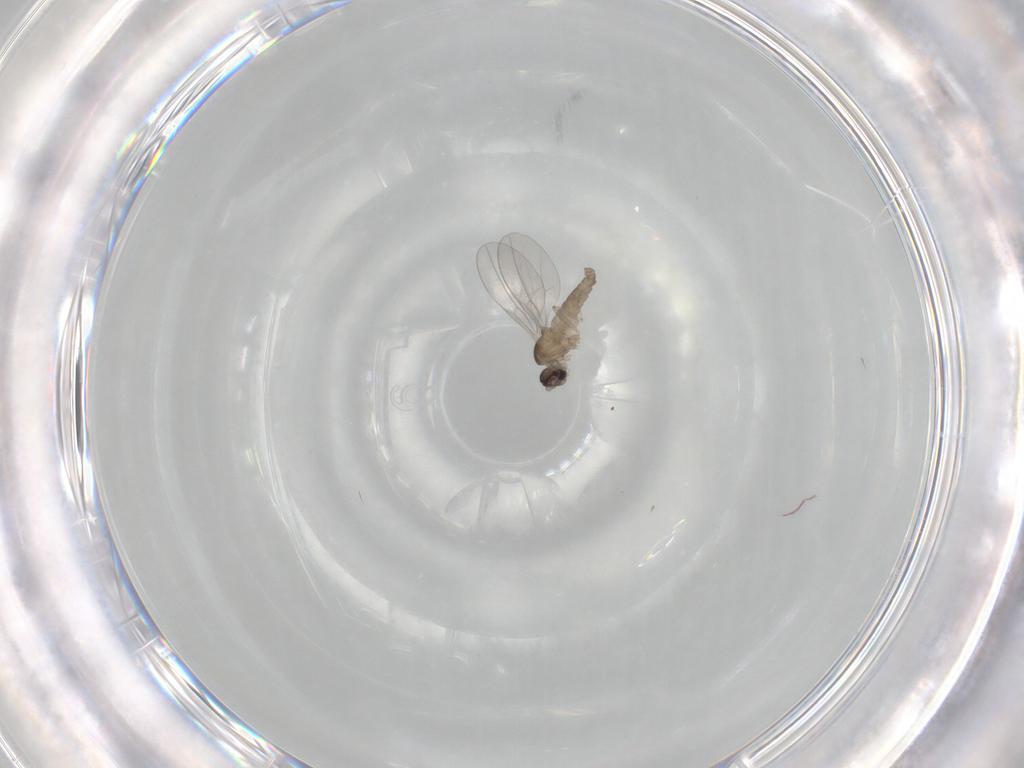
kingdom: Animalia
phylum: Arthropoda
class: Insecta
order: Diptera
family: Cecidomyiidae
